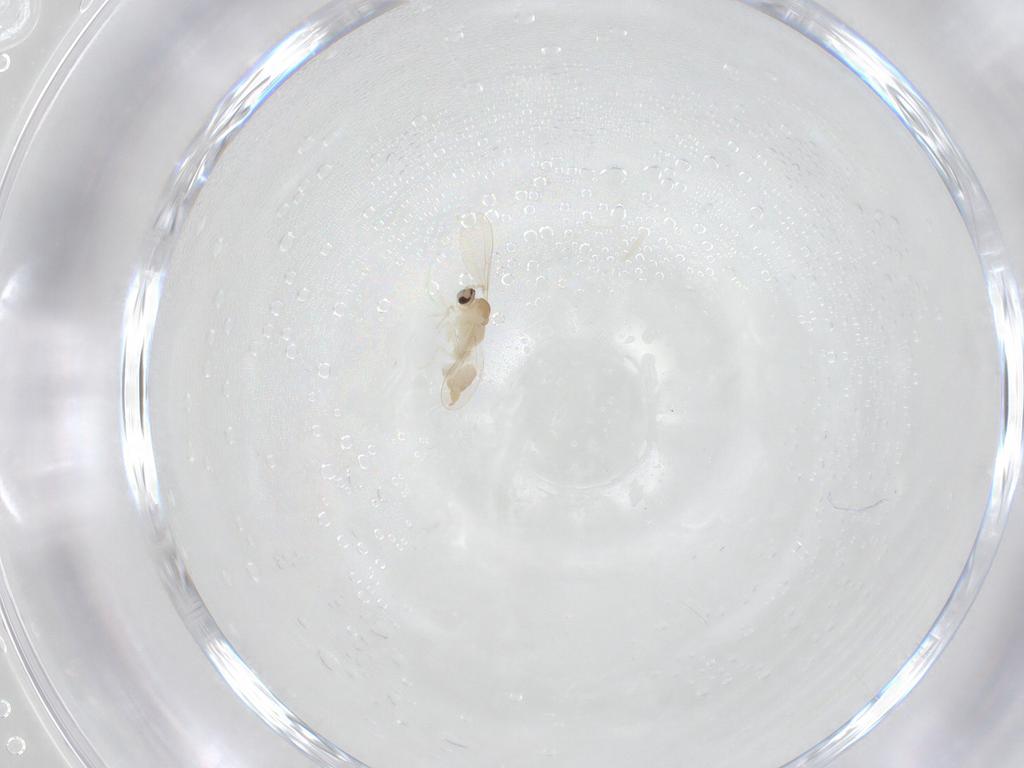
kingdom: Animalia
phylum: Arthropoda
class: Insecta
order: Diptera
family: Cecidomyiidae
